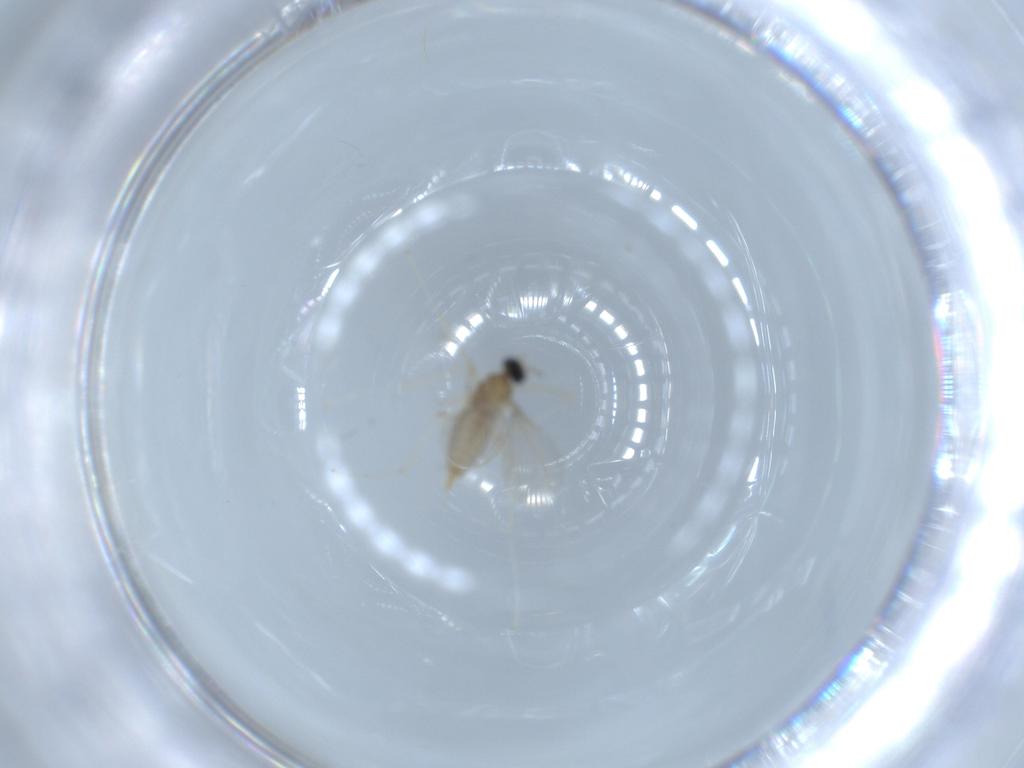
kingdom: Animalia
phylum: Arthropoda
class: Insecta
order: Diptera
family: Cecidomyiidae
